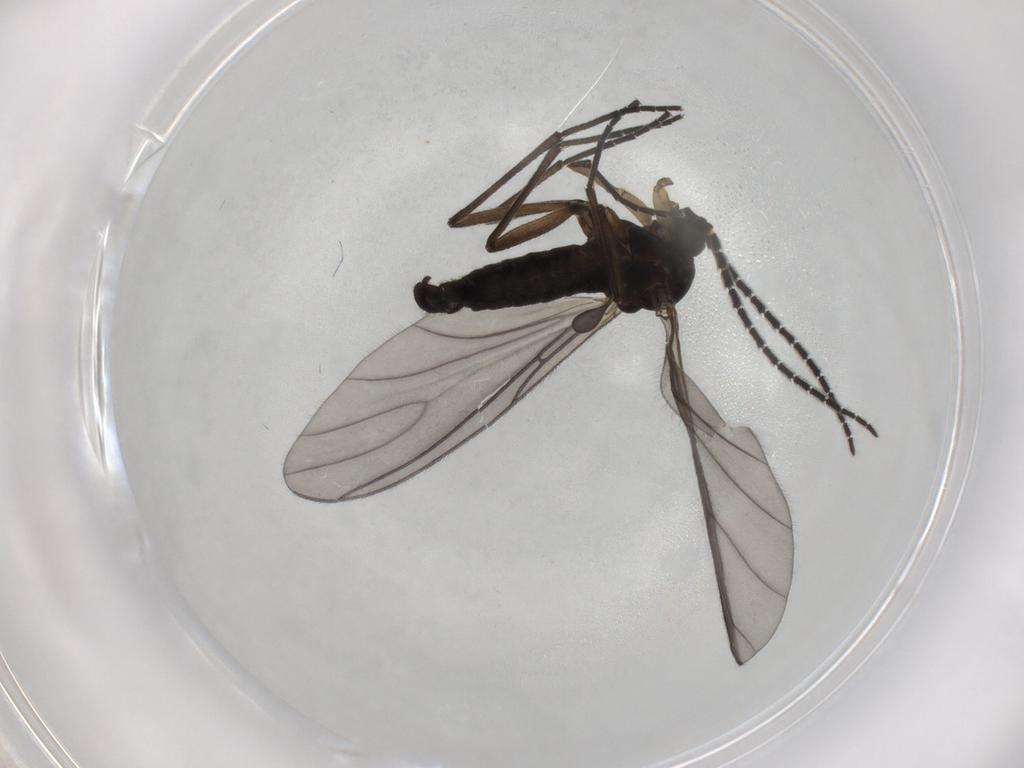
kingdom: Animalia
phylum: Arthropoda
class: Insecta
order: Diptera
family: Sciaridae
